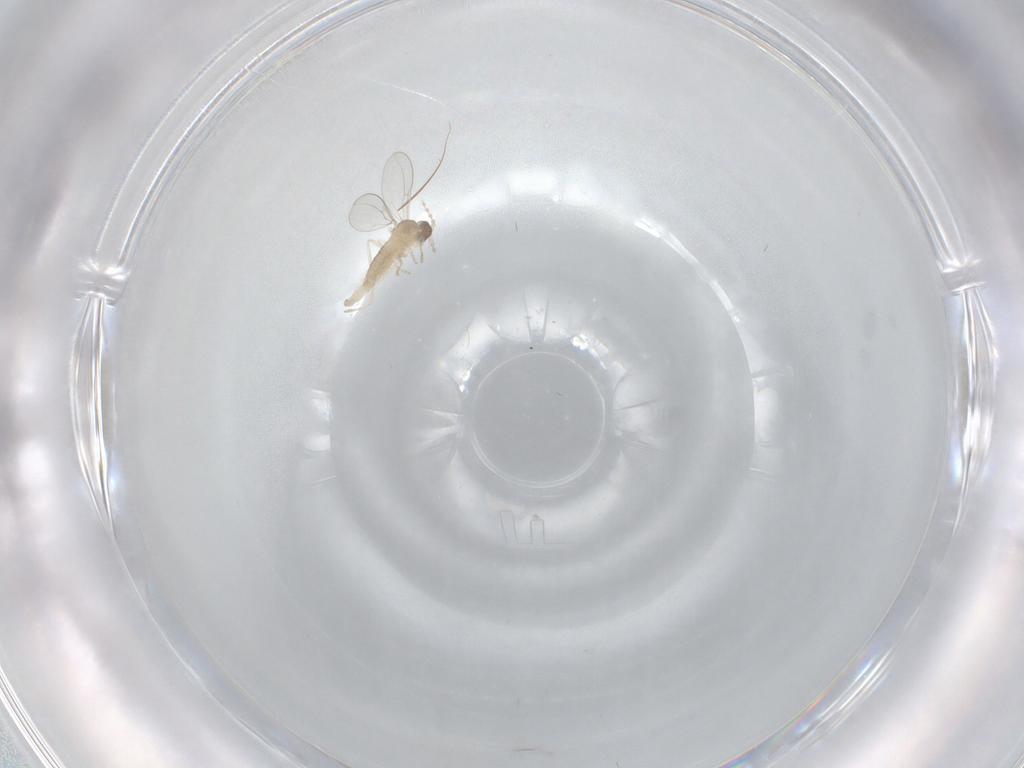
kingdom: Animalia
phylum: Arthropoda
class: Insecta
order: Diptera
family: Cecidomyiidae
